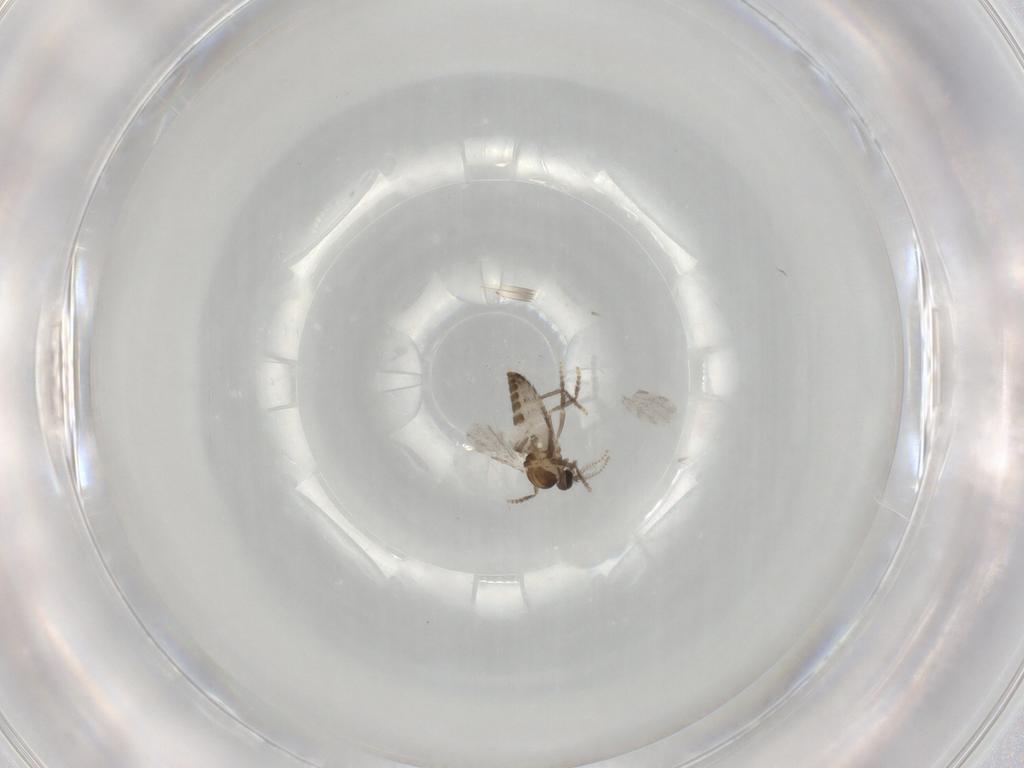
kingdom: Animalia
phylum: Arthropoda
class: Insecta
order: Diptera
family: Ceratopogonidae
